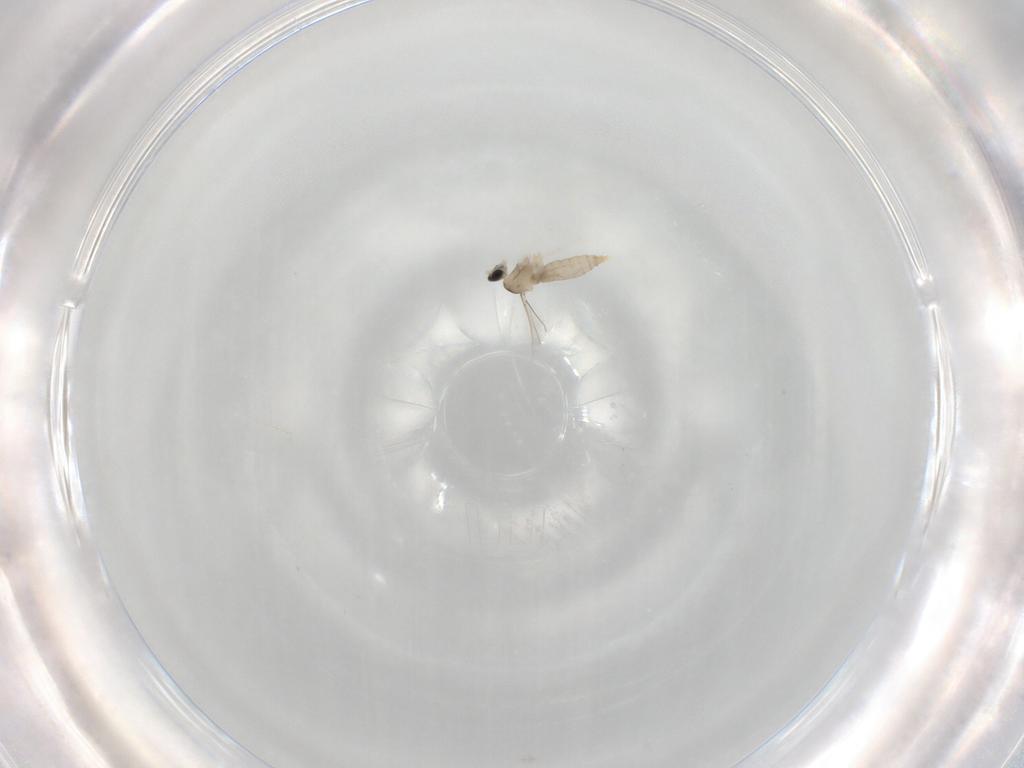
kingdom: Animalia
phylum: Arthropoda
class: Insecta
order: Diptera
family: Cecidomyiidae
